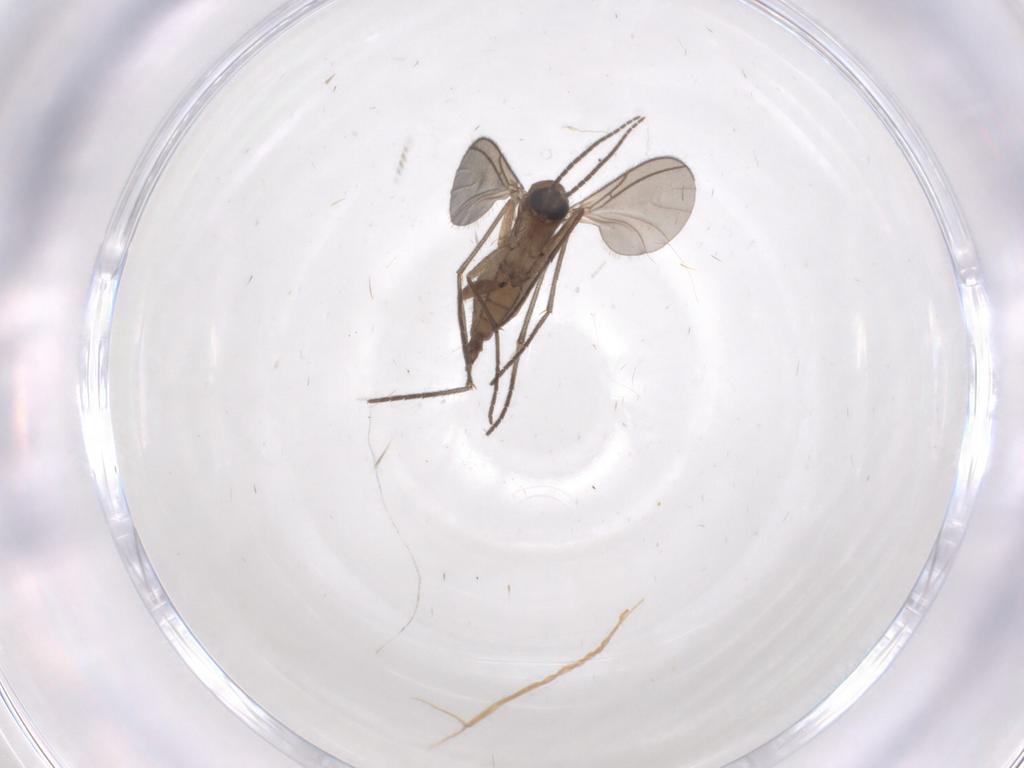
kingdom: Animalia
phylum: Arthropoda
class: Insecta
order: Diptera
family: Sciaridae
